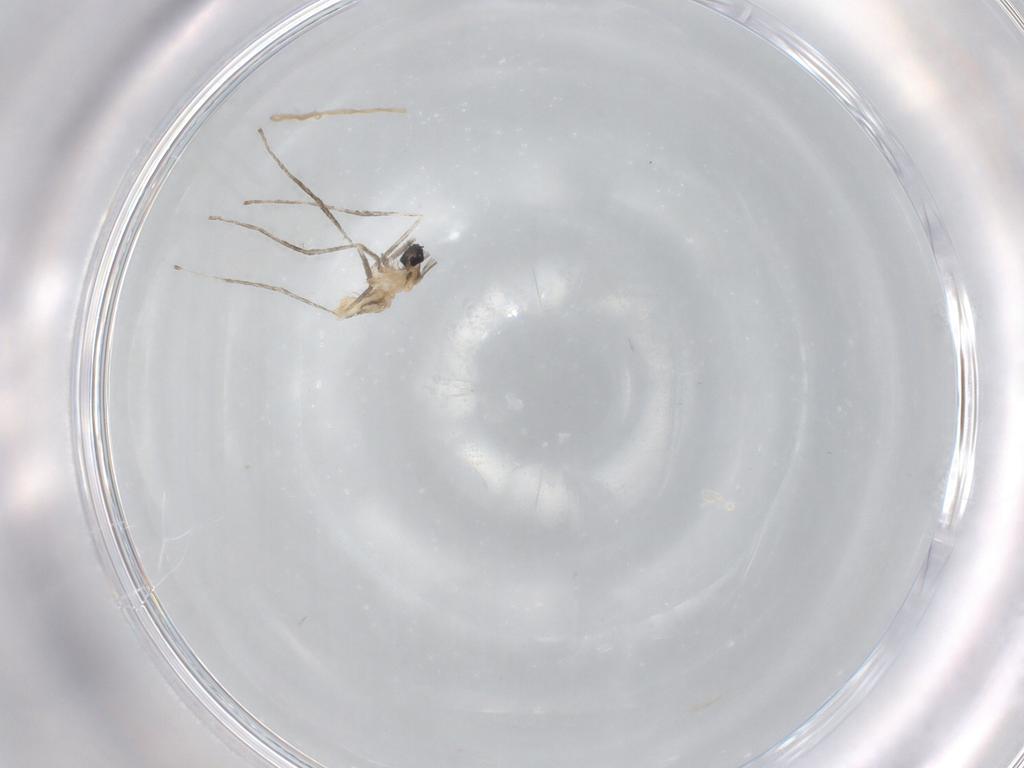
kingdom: Animalia
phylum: Arthropoda
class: Insecta
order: Diptera
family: Cecidomyiidae
